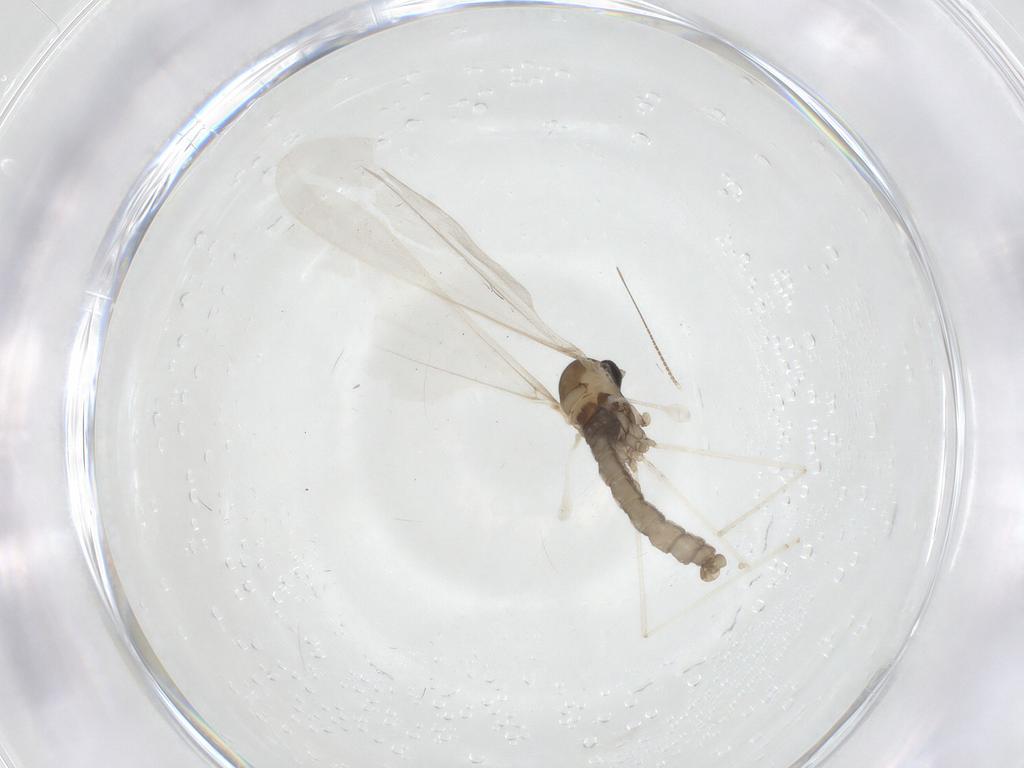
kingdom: Animalia
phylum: Arthropoda
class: Insecta
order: Diptera
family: Cecidomyiidae
